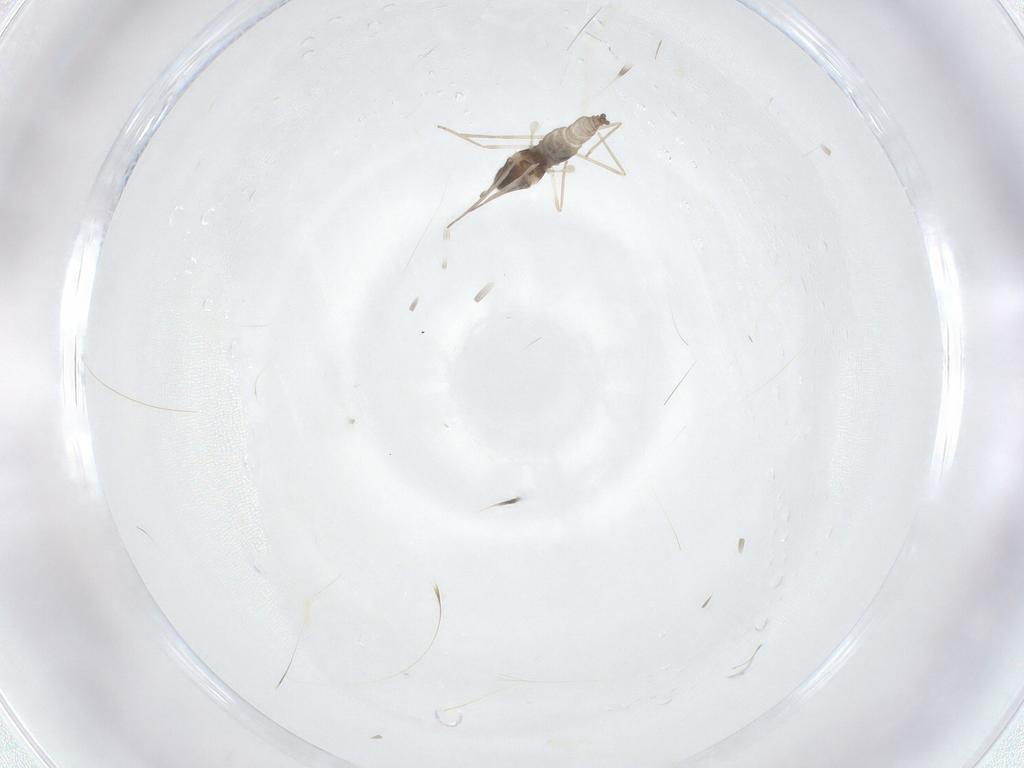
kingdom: Animalia
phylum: Arthropoda
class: Insecta
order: Diptera
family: Cecidomyiidae
